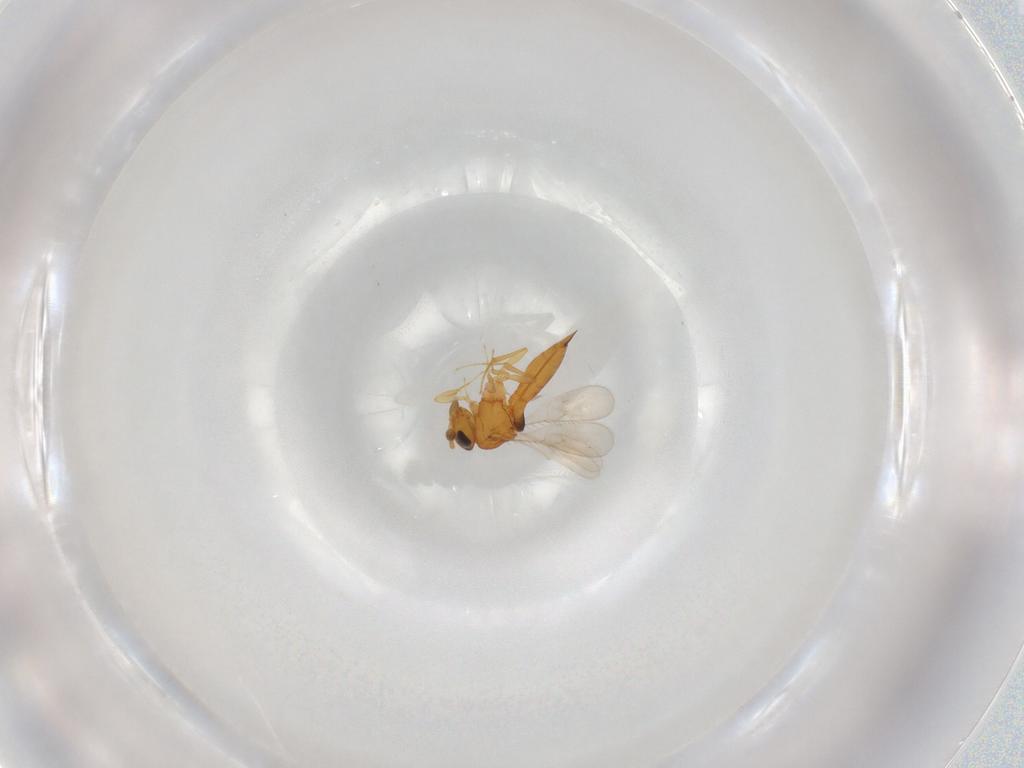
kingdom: Animalia
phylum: Arthropoda
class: Insecta
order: Hymenoptera
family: Scelionidae
